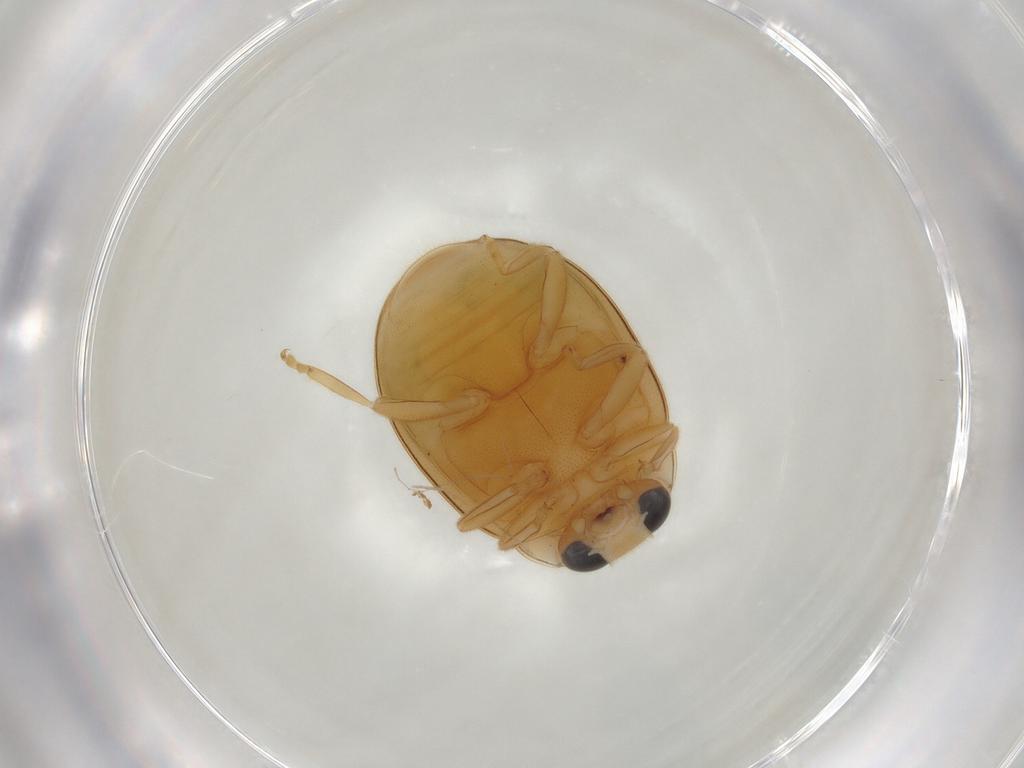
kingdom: Animalia
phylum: Arthropoda
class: Insecta
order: Coleoptera
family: Coccinellidae
